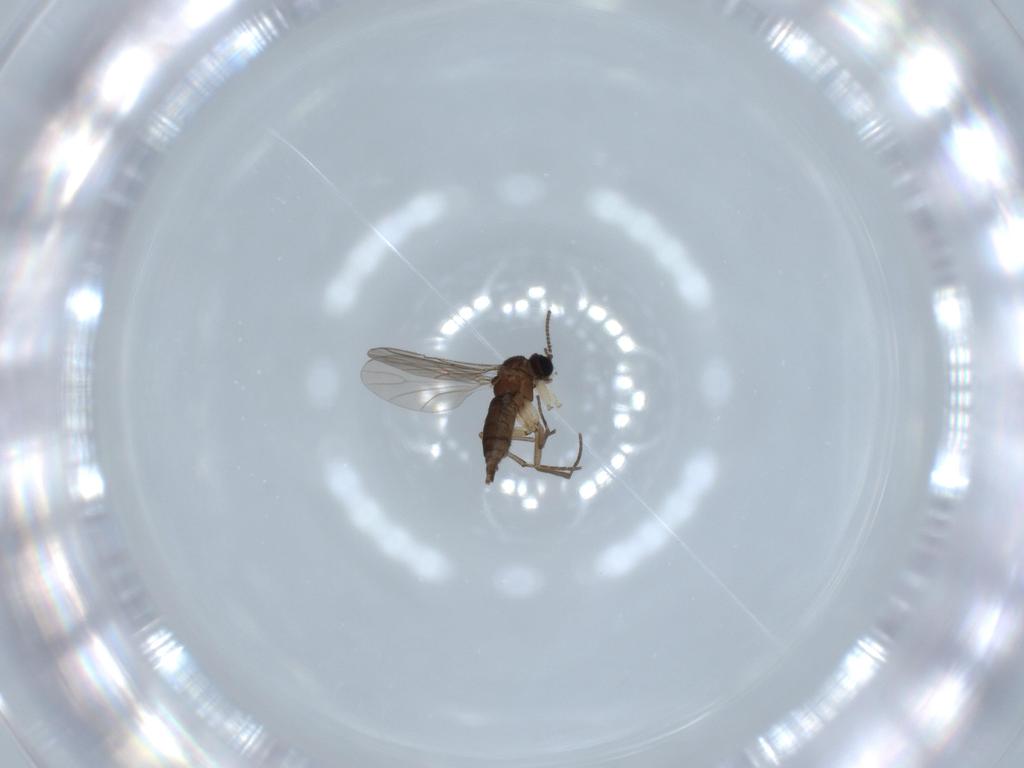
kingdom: Animalia
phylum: Arthropoda
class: Insecta
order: Diptera
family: Sciaridae
